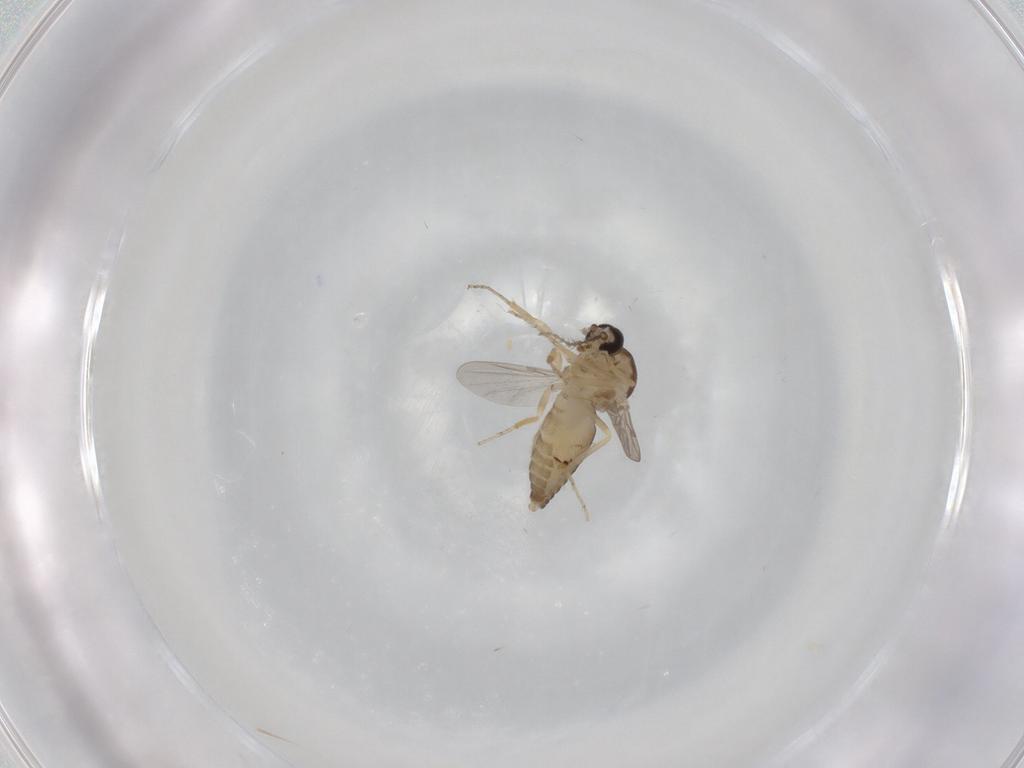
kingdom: Animalia
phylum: Arthropoda
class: Insecta
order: Diptera
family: Ceratopogonidae
